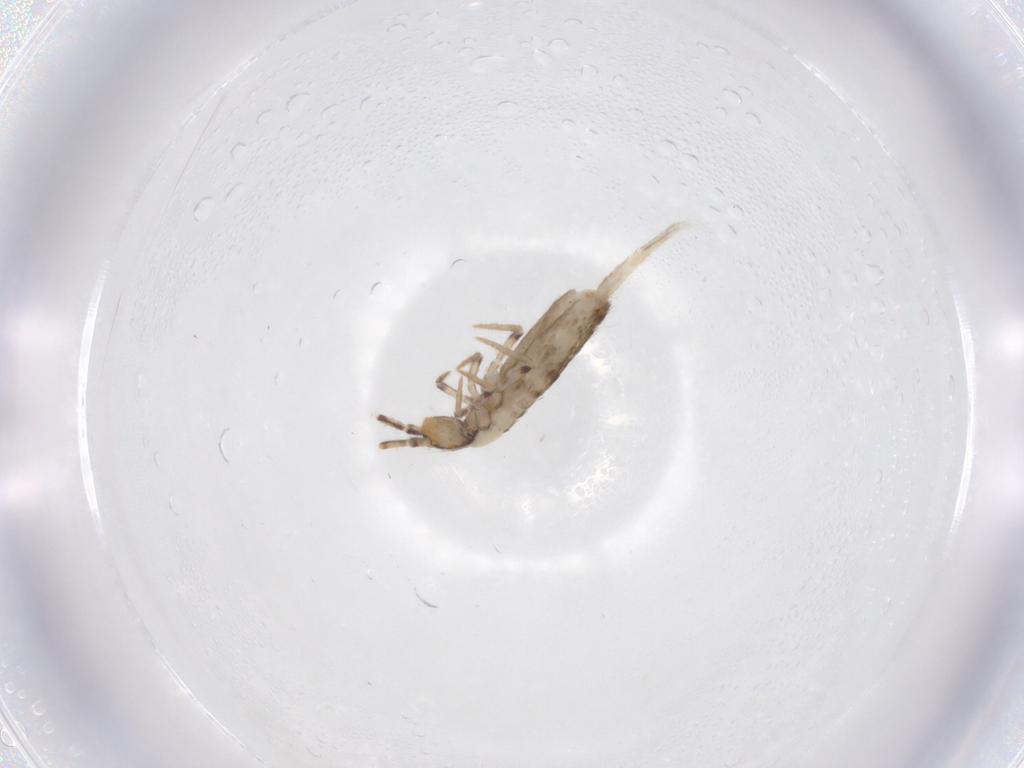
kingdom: Animalia
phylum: Arthropoda
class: Collembola
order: Entomobryomorpha
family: Entomobryidae
